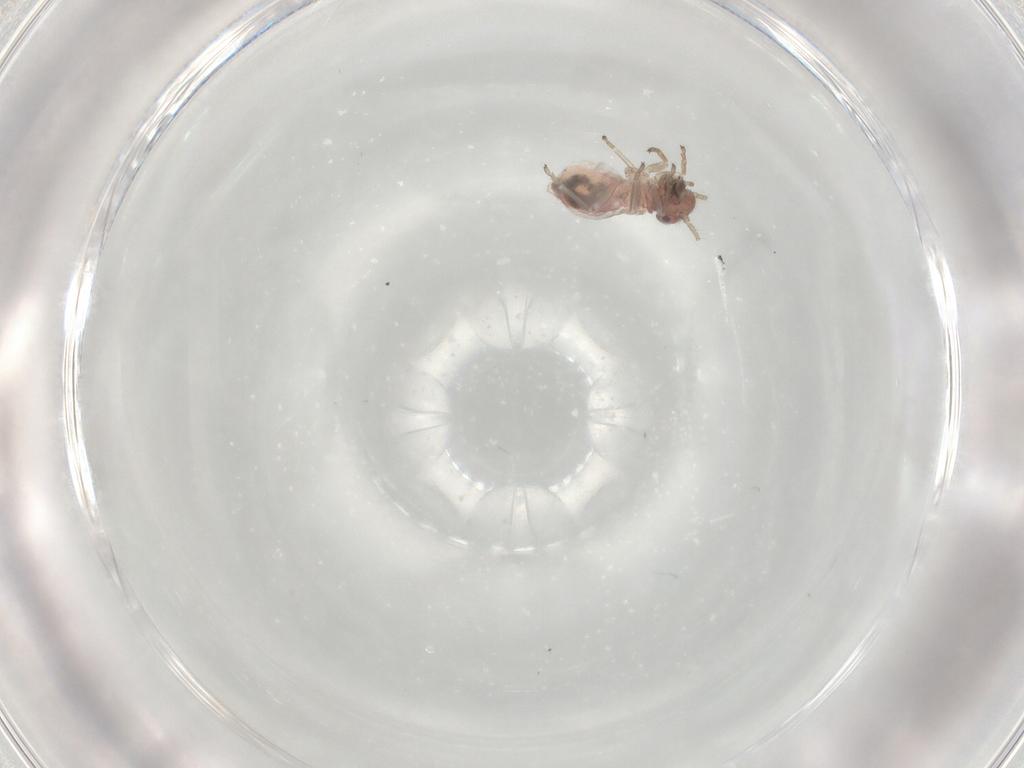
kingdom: Animalia
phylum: Arthropoda
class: Insecta
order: Psocodea
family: Caeciliusidae
